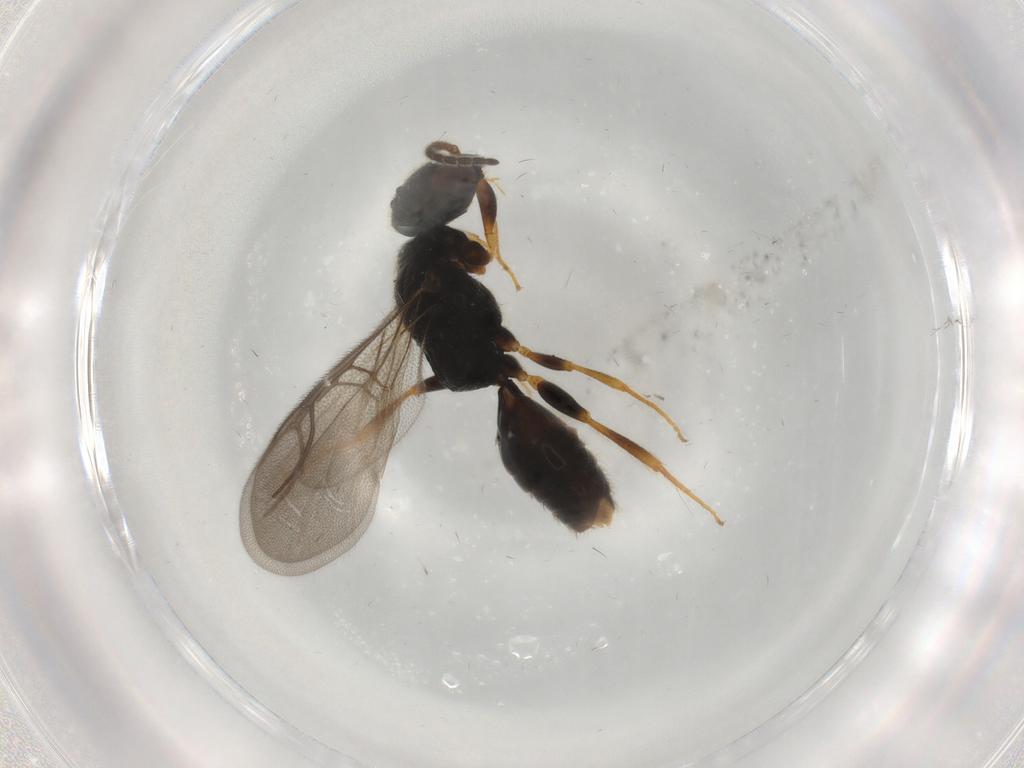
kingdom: Animalia
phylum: Arthropoda
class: Insecta
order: Hymenoptera
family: Bethylidae
